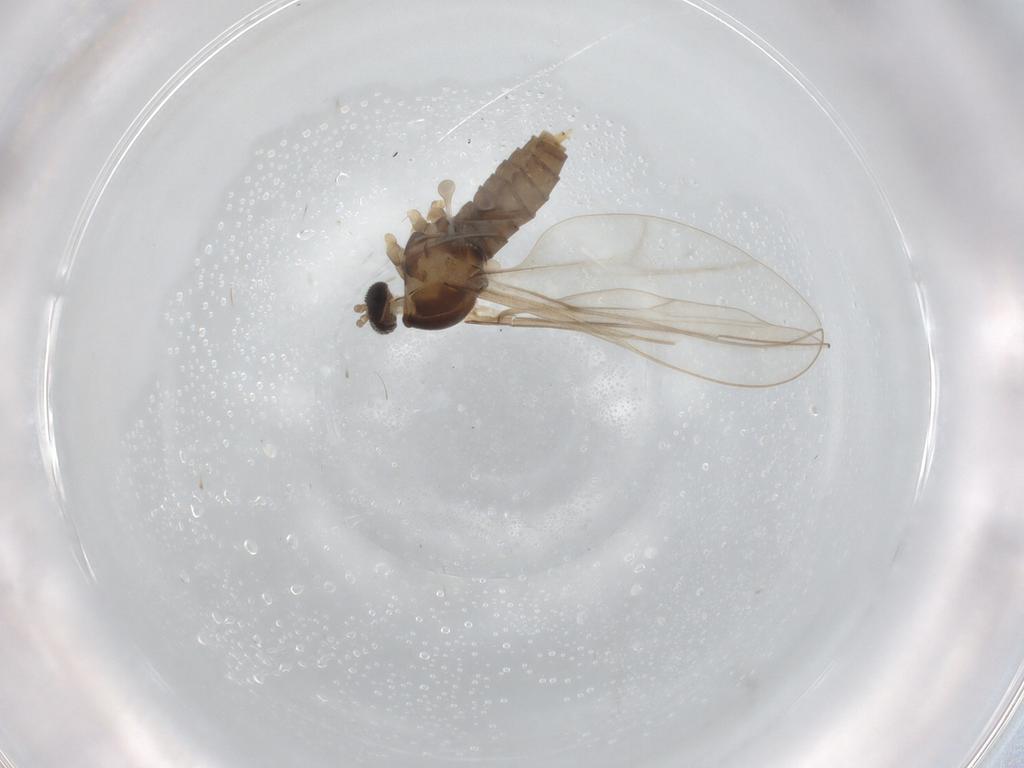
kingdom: Animalia
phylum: Arthropoda
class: Insecta
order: Diptera
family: Cecidomyiidae
